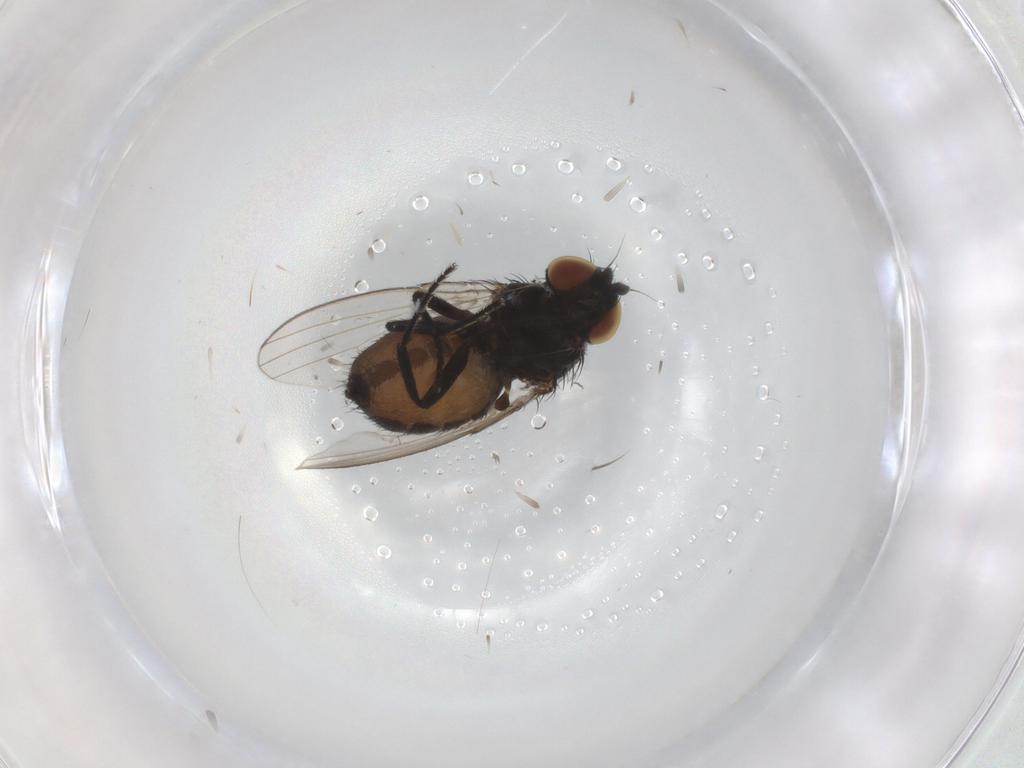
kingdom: Animalia
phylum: Arthropoda
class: Insecta
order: Diptera
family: Milichiidae
